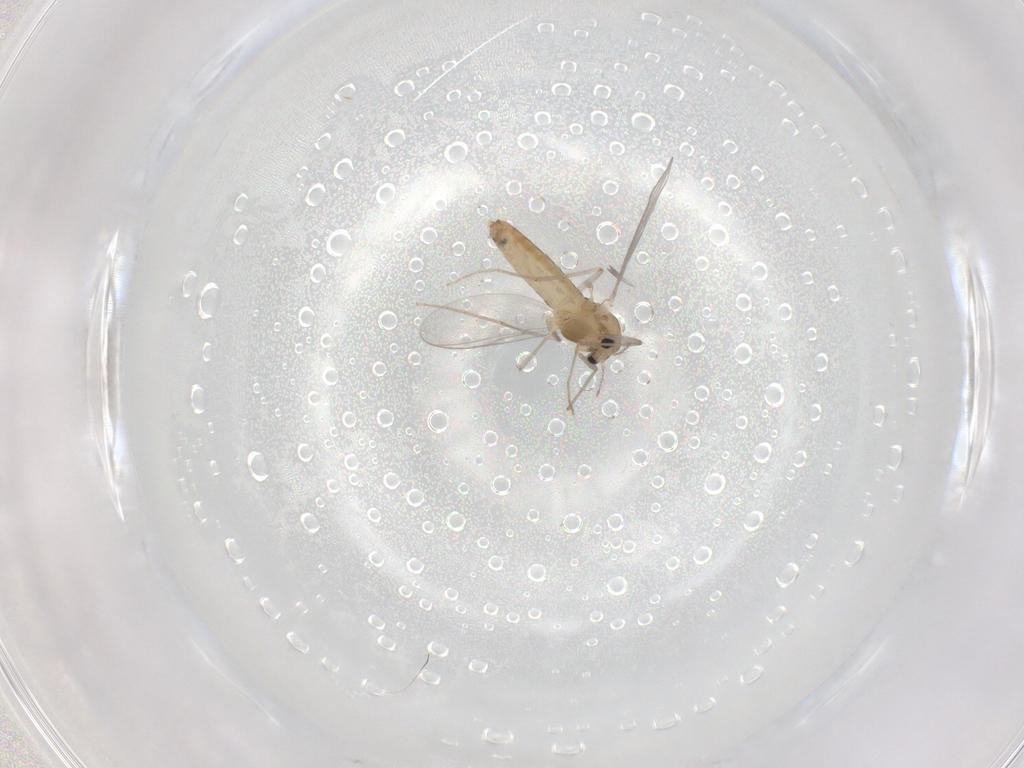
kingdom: Animalia
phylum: Arthropoda
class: Insecta
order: Diptera
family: Chironomidae
